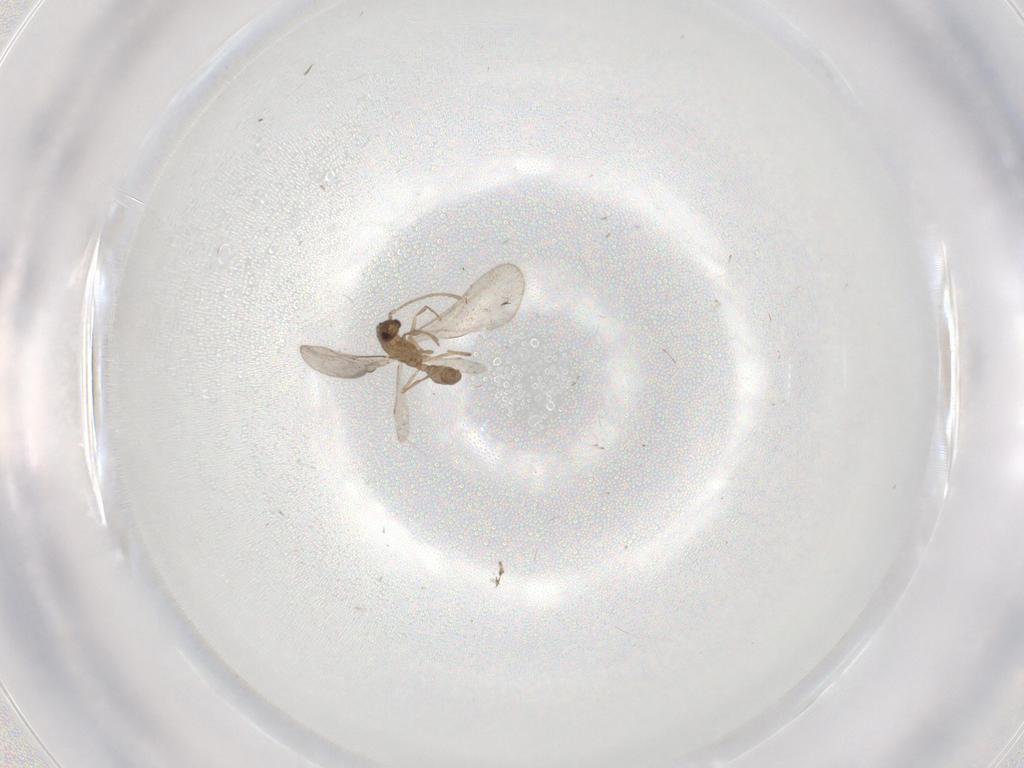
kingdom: Animalia
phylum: Arthropoda
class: Insecta
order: Hymenoptera
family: Formicidae
